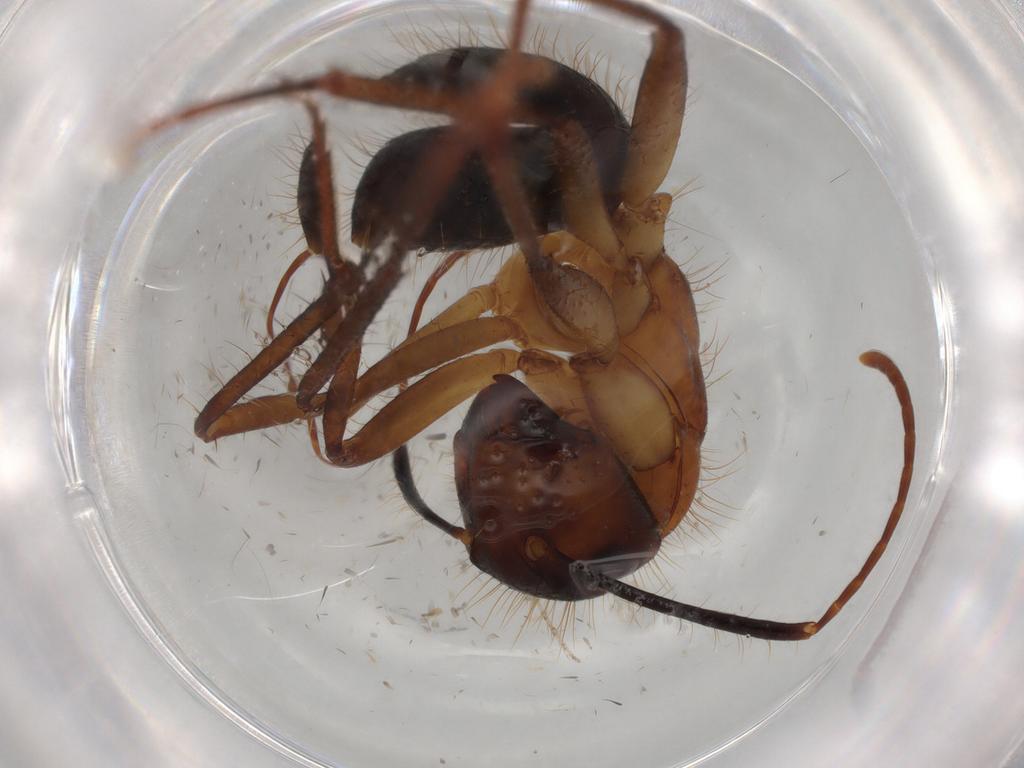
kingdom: Animalia
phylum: Arthropoda
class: Insecta
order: Hymenoptera
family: Formicidae
